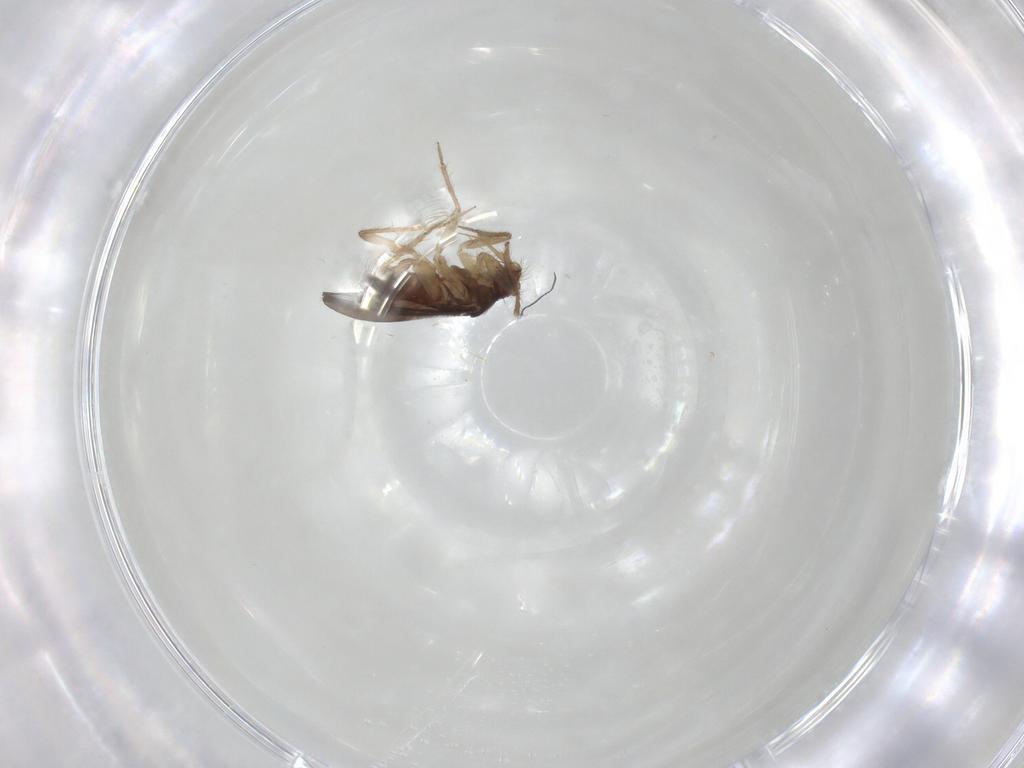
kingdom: Animalia
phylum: Arthropoda
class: Insecta
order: Hemiptera
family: Ceratocombidae
